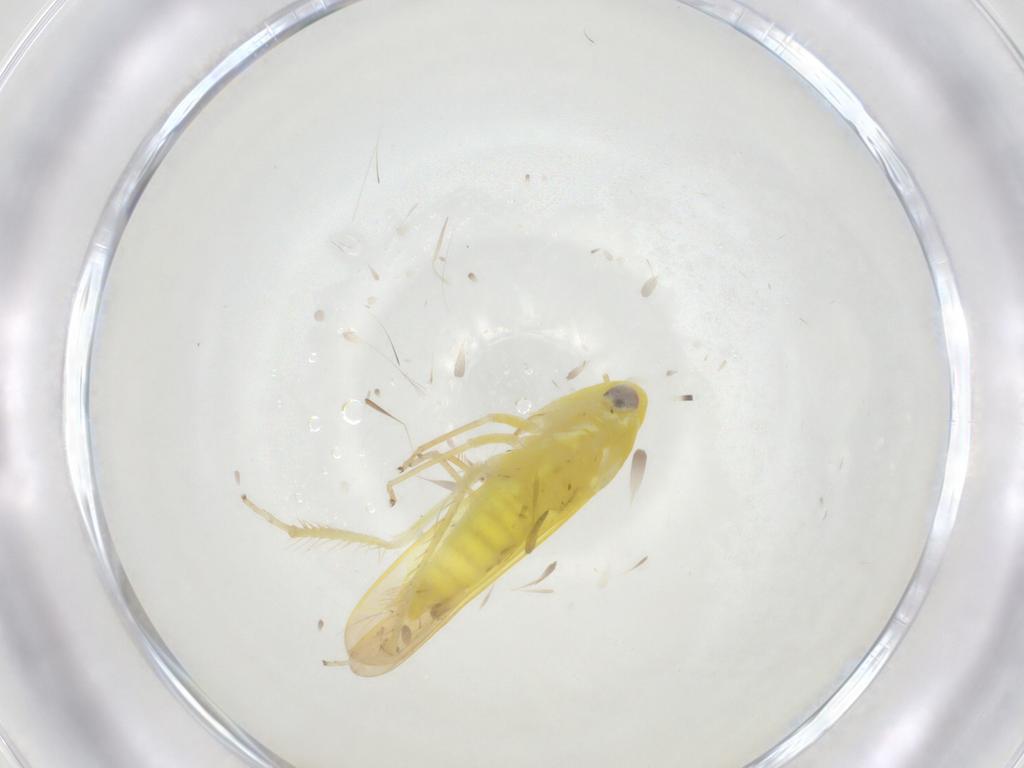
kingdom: Animalia
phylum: Arthropoda
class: Insecta
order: Hemiptera
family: Cicadellidae
